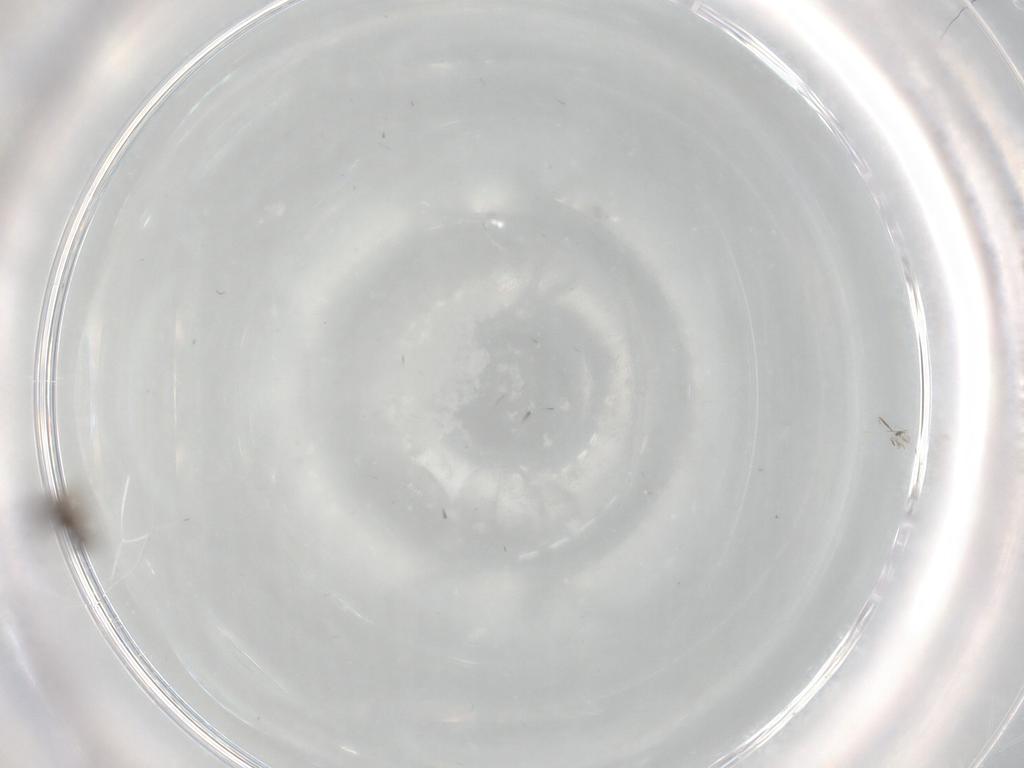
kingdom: Animalia
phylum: Arthropoda
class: Insecta
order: Diptera
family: Cecidomyiidae
